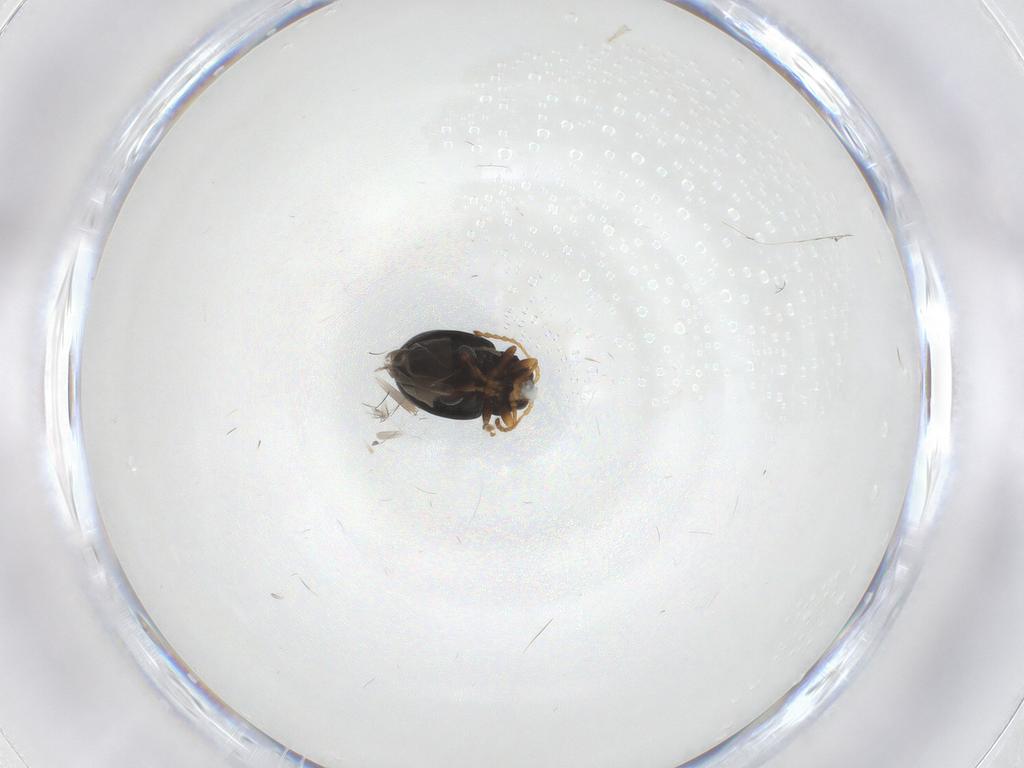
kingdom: Animalia
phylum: Arthropoda
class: Insecta
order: Coleoptera
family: Chrysomelidae
